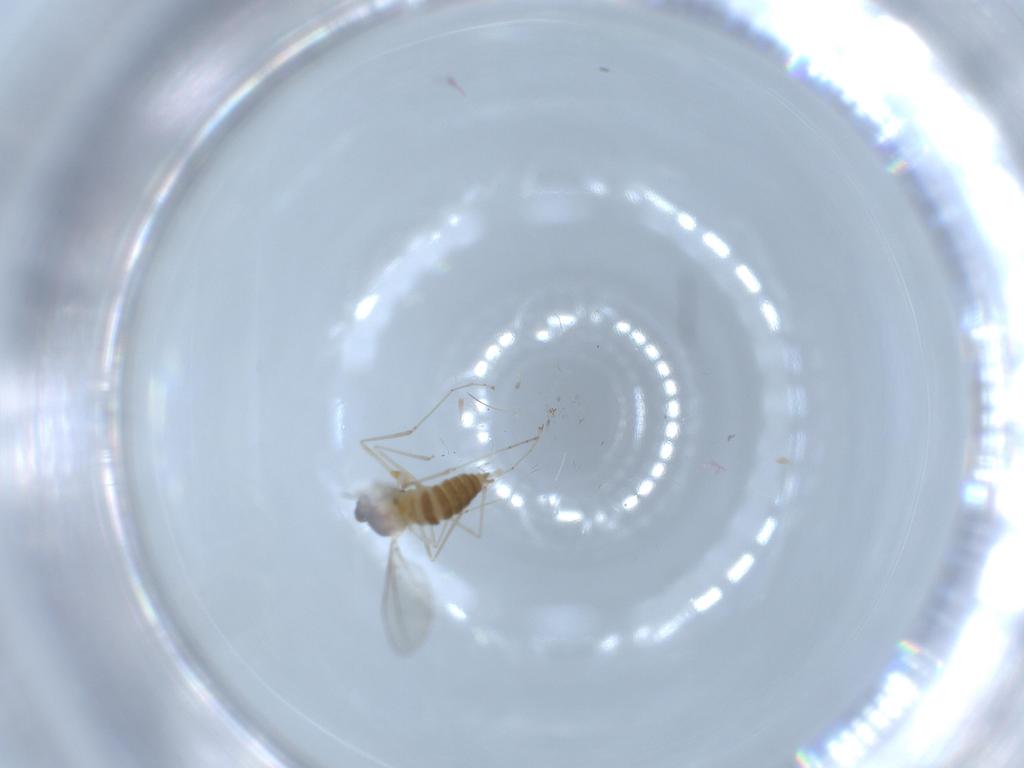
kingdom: Animalia
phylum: Arthropoda
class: Insecta
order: Diptera
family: Cecidomyiidae
